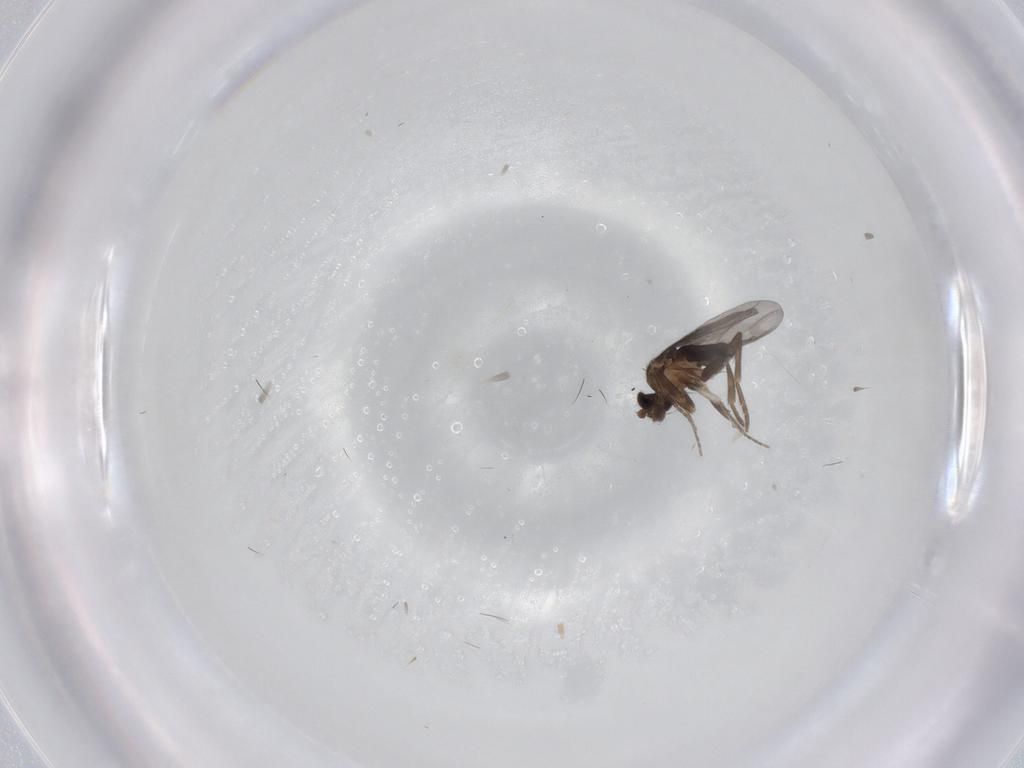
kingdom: Animalia
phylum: Arthropoda
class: Insecta
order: Diptera
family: Phoridae
